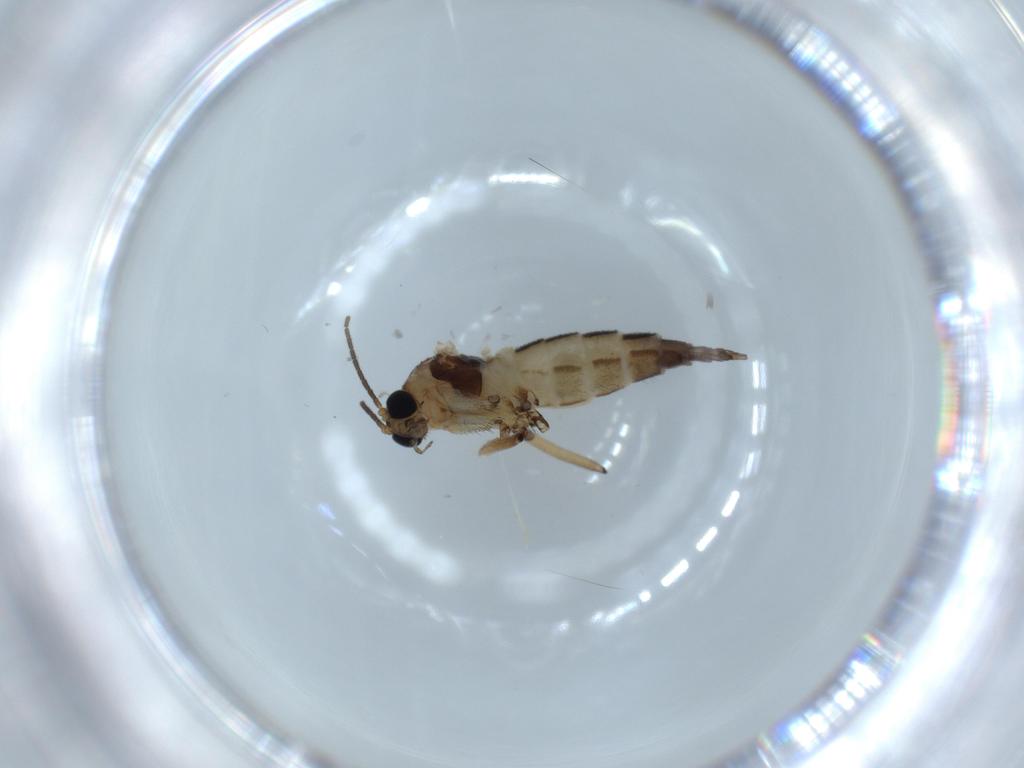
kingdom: Animalia
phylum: Arthropoda
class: Insecta
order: Diptera
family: Sciaridae
